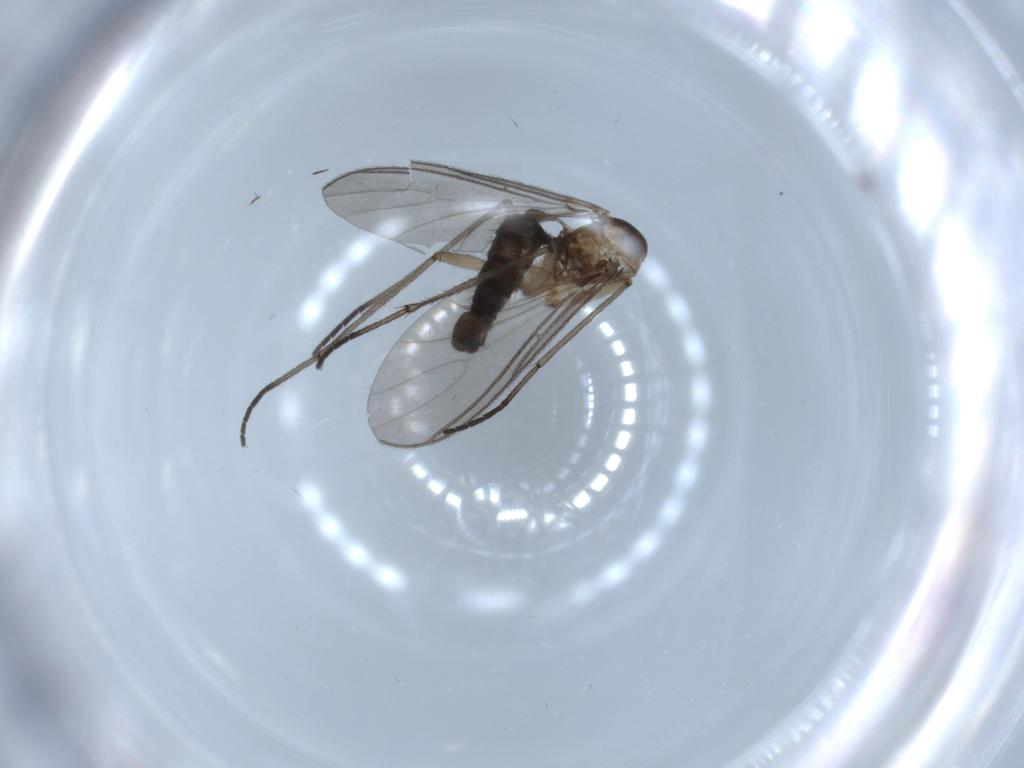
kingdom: Animalia
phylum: Arthropoda
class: Insecta
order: Diptera
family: Sciaridae
